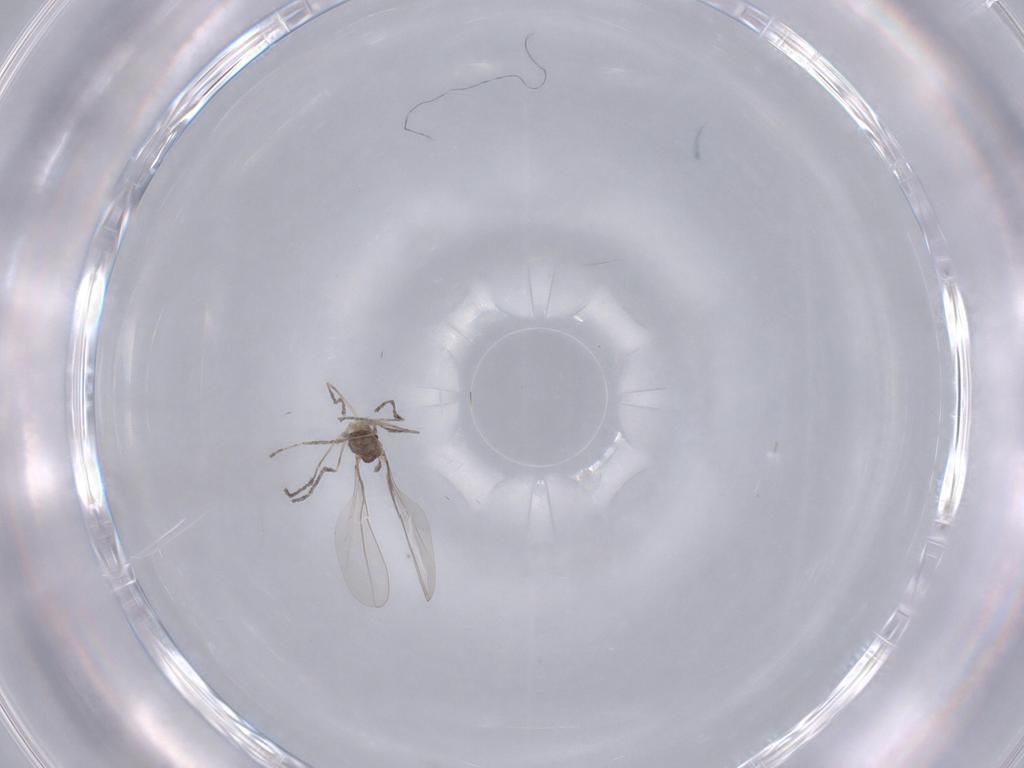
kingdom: Animalia
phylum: Arthropoda
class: Insecta
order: Diptera
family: Cecidomyiidae
